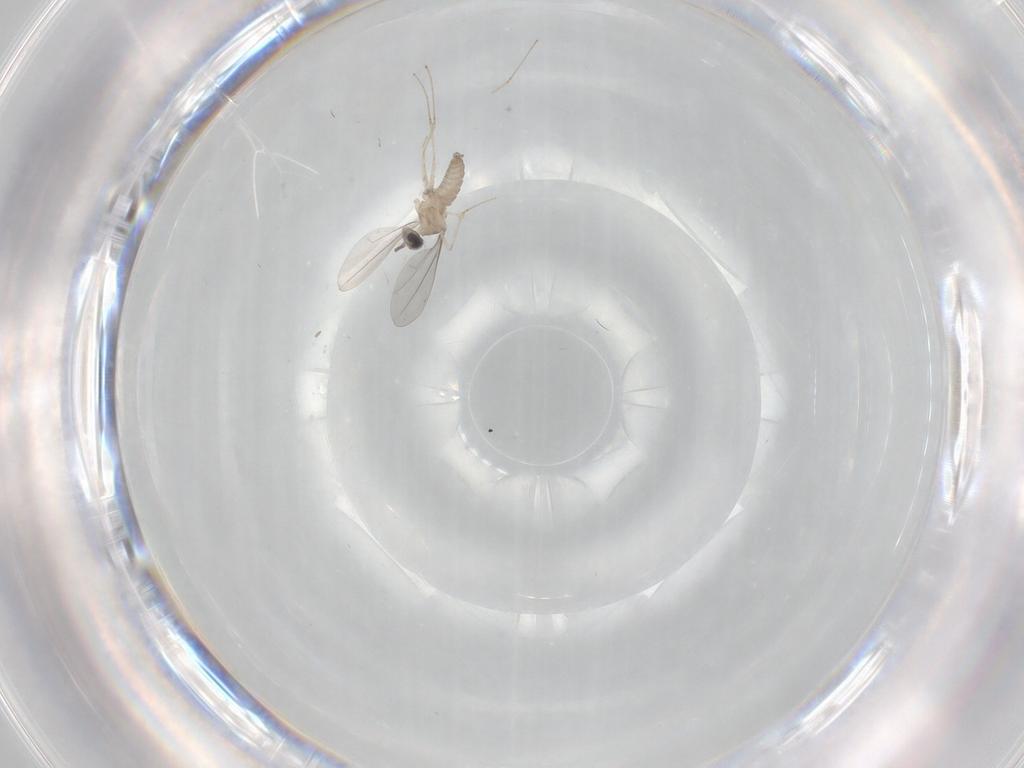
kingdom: Animalia
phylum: Arthropoda
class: Insecta
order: Diptera
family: Cecidomyiidae
